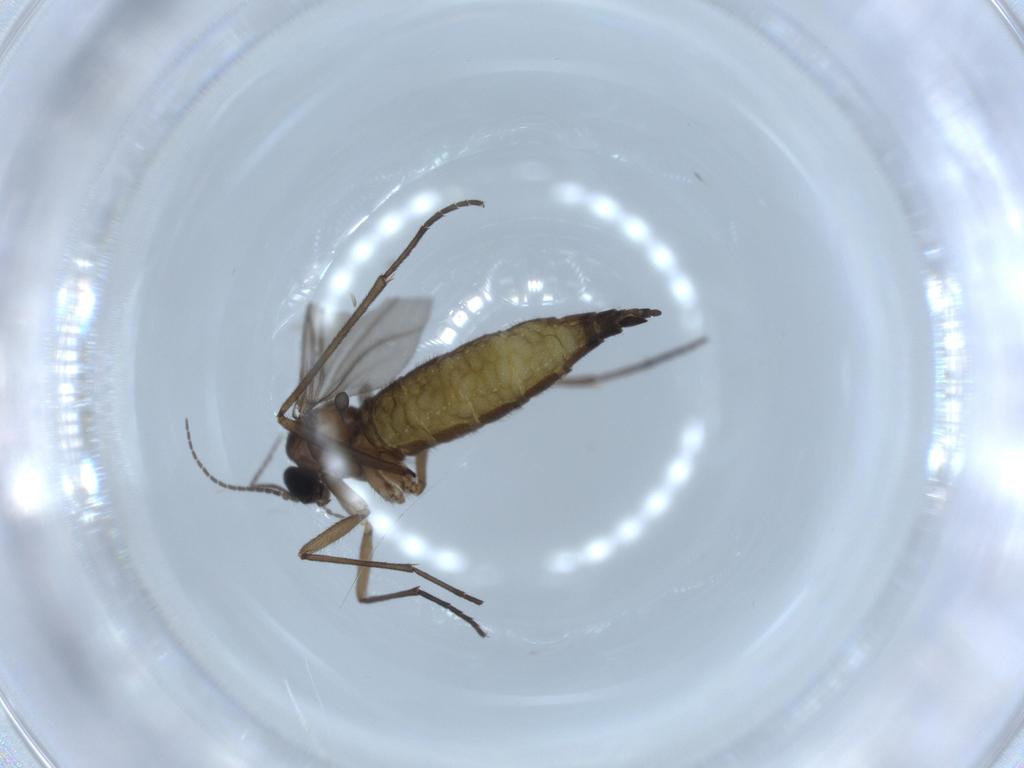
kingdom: Animalia
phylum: Arthropoda
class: Insecta
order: Diptera
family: Sciaridae
